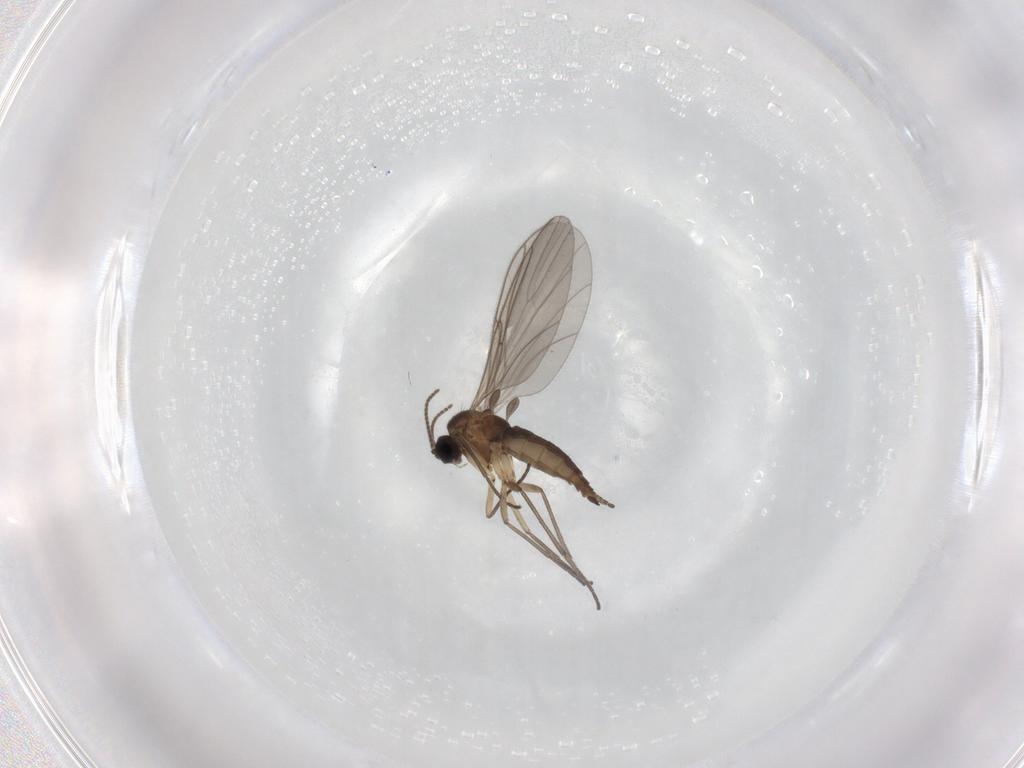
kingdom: Animalia
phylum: Arthropoda
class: Insecta
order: Diptera
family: Sciaridae
